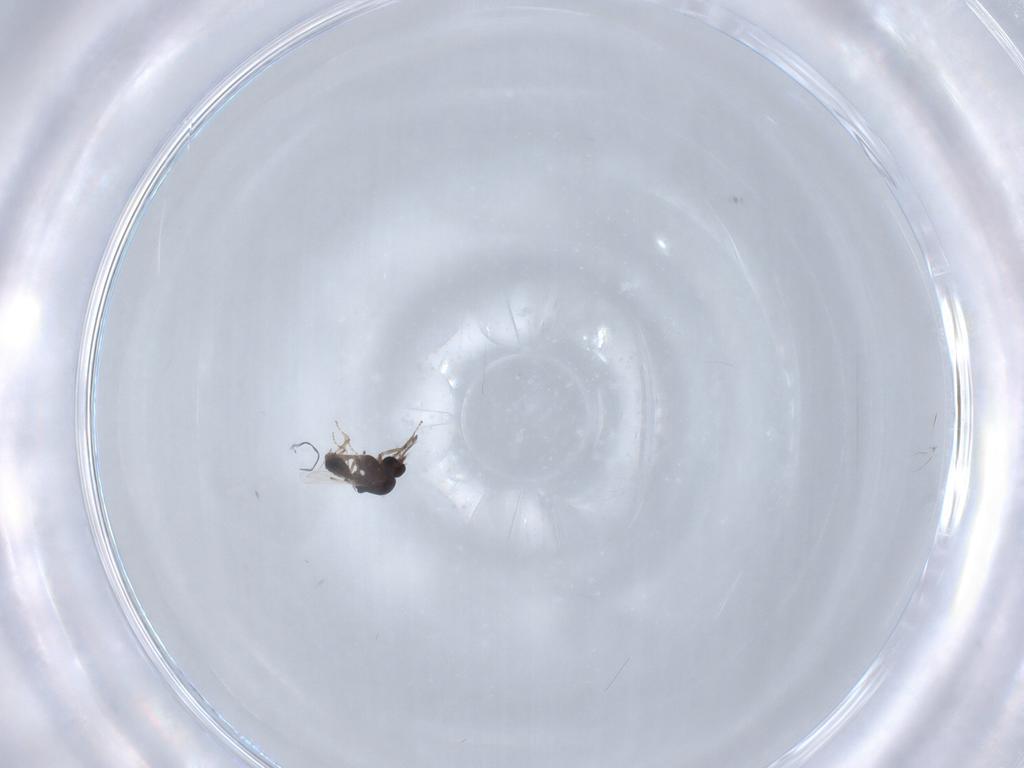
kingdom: Animalia
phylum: Arthropoda
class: Insecta
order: Diptera
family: Ceratopogonidae
